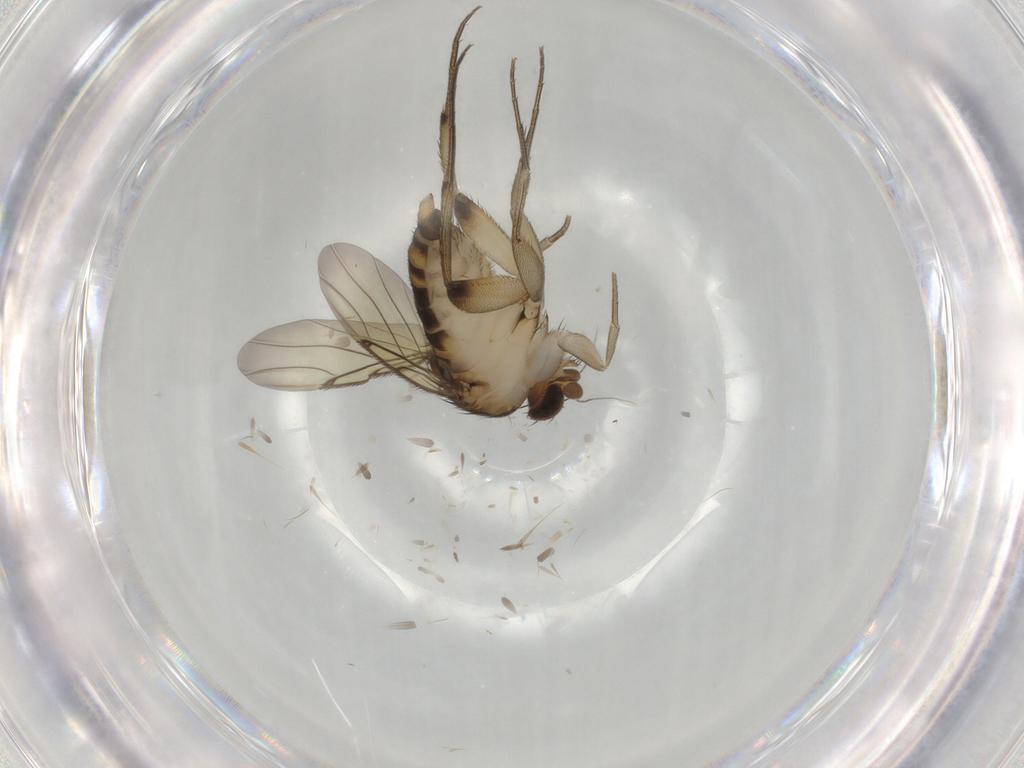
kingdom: Animalia
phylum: Arthropoda
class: Insecta
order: Diptera
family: Phoridae
